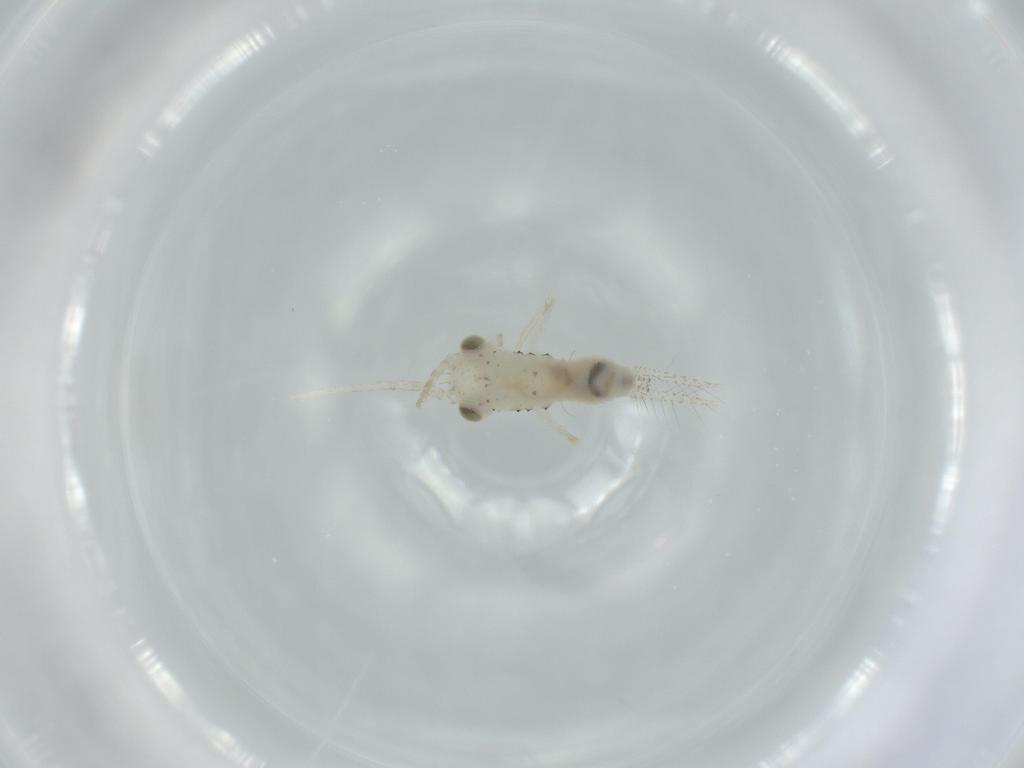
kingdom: Animalia
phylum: Arthropoda
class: Insecta
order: Orthoptera
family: Trigonidiidae
